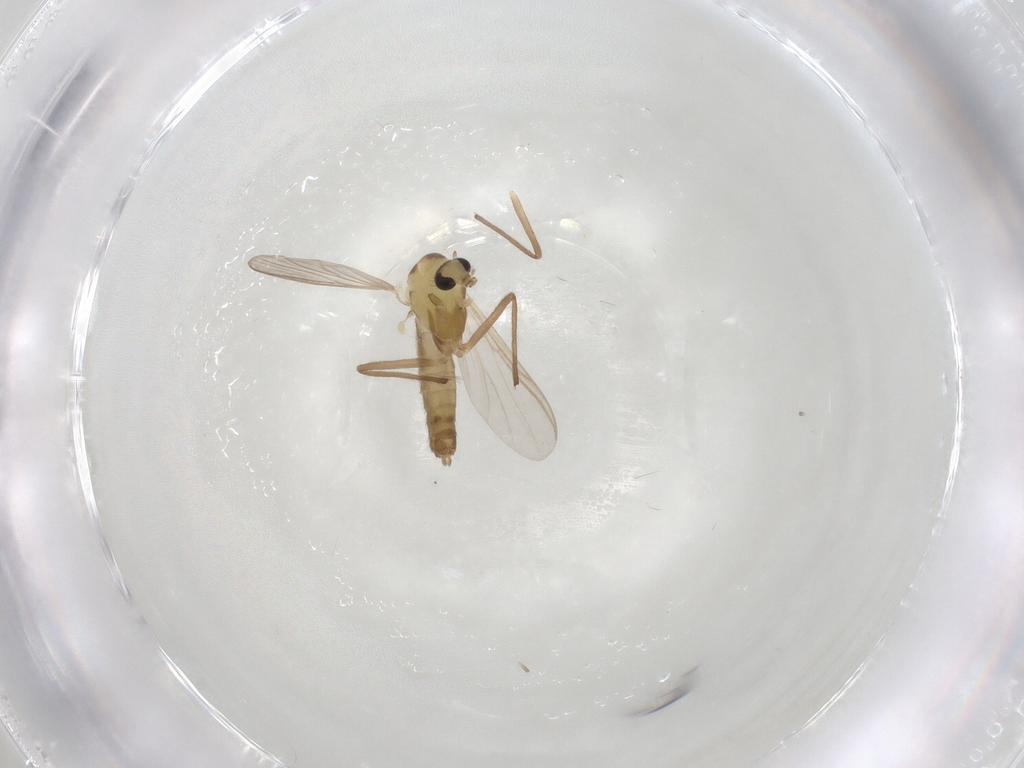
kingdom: Animalia
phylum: Arthropoda
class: Insecta
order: Diptera
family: Chironomidae
